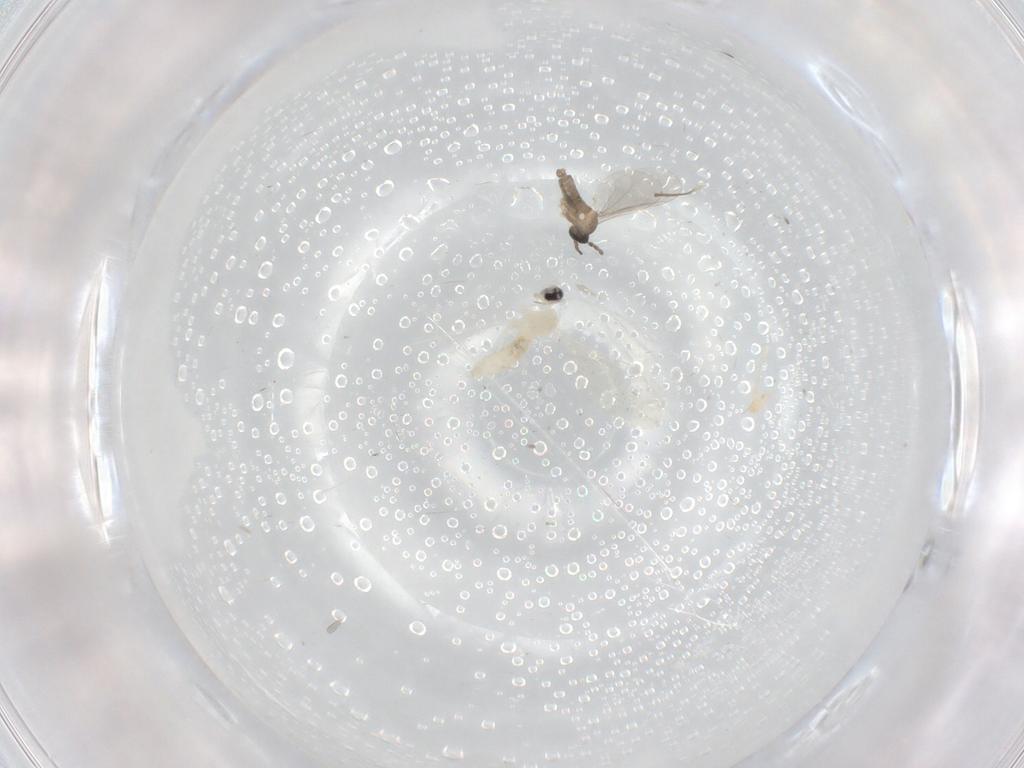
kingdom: Animalia
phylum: Arthropoda
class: Insecta
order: Diptera
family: Cecidomyiidae
